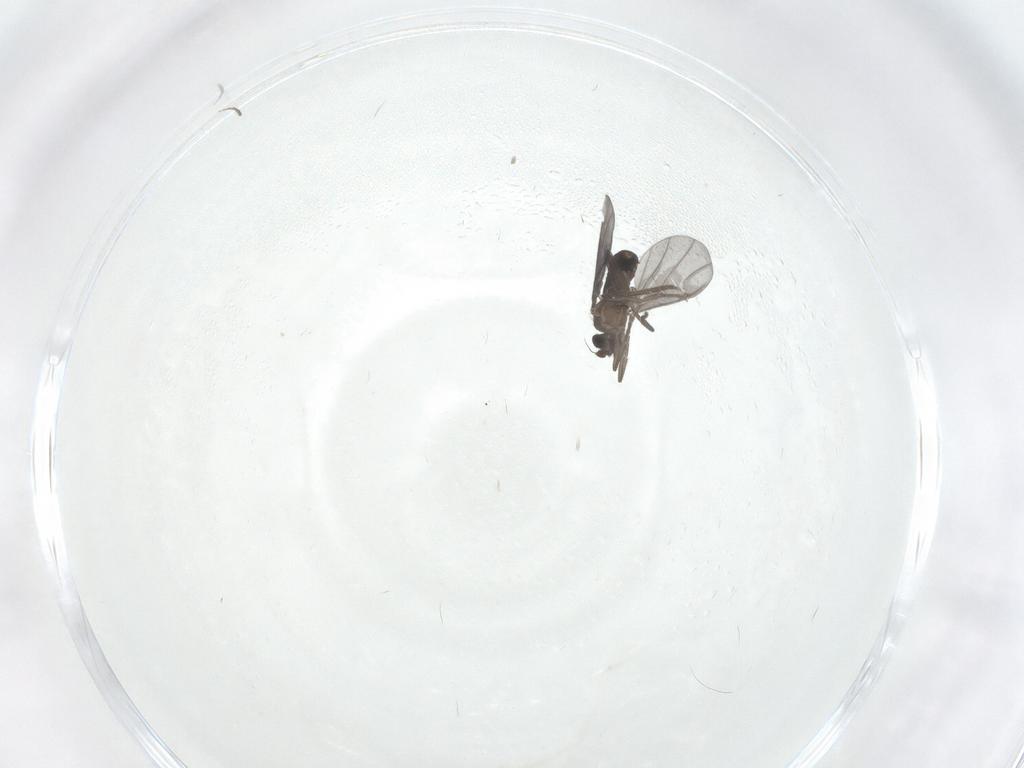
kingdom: Animalia
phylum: Arthropoda
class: Insecta
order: Diptera
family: Phoridae
